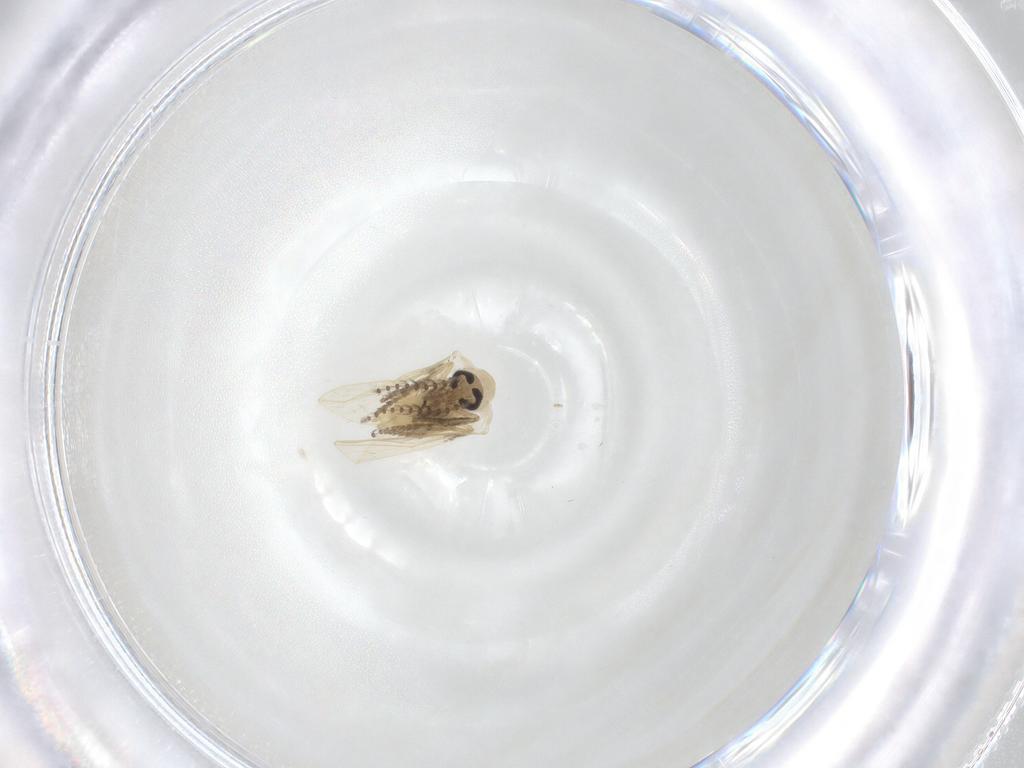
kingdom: Animalia
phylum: Arthropoda
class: Insecta
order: Diptera
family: Psychodidae
